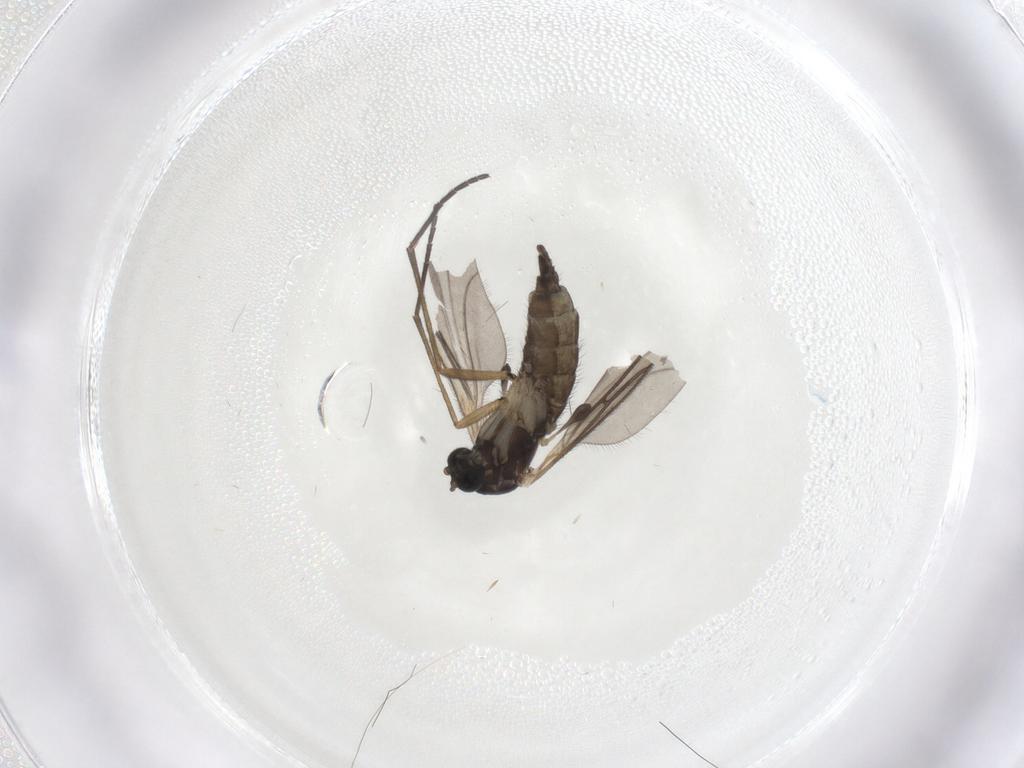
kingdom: Animalia
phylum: Arthropoda
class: Insecta
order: Diptera
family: Sciaridae
